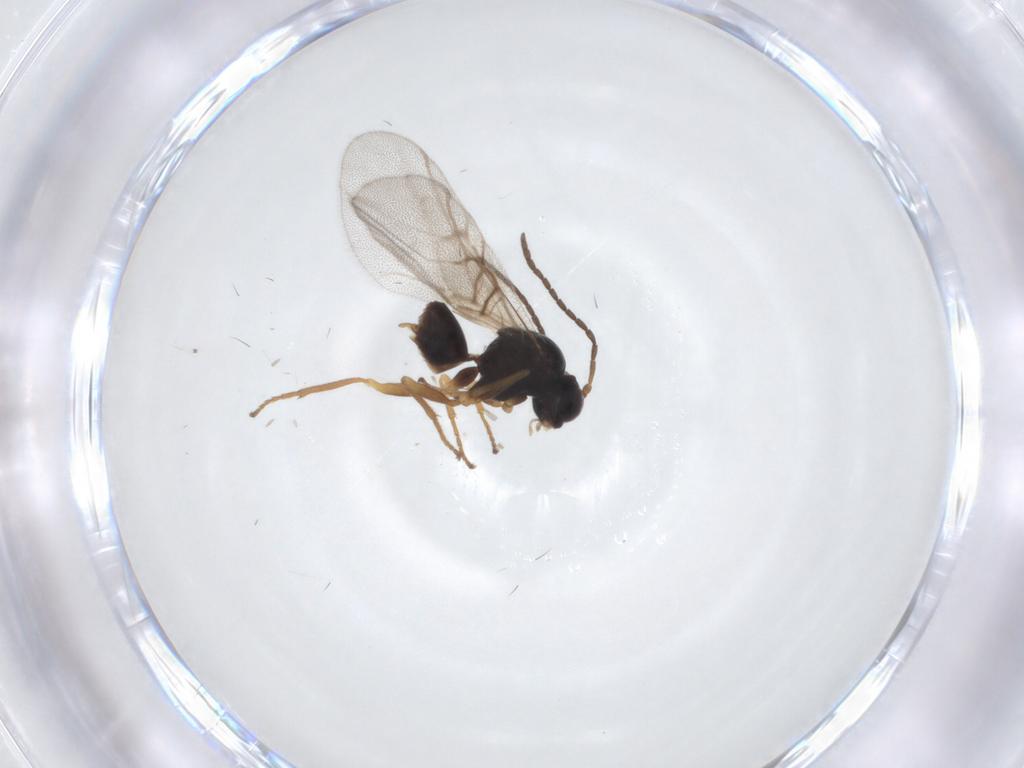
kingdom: Animalia
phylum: Arthropoda
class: Insecta
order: Hymenoptera
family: Cynipidae
